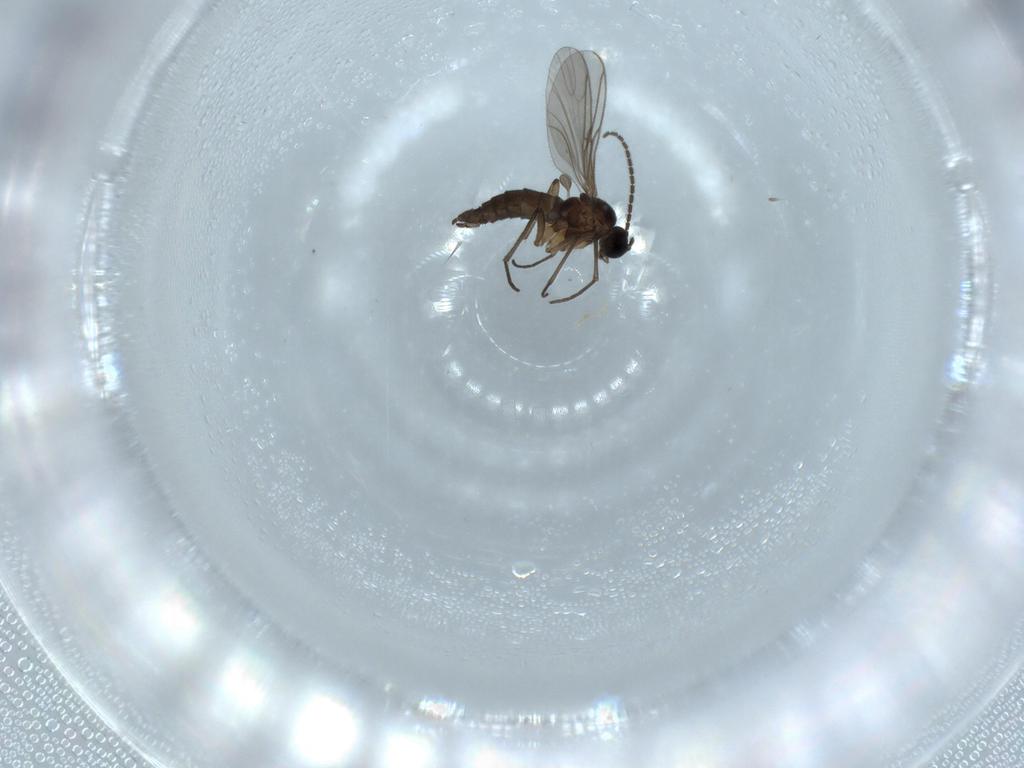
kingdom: Animalia
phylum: Arthropoda
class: Insecta
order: Diptera
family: Sciaridae
